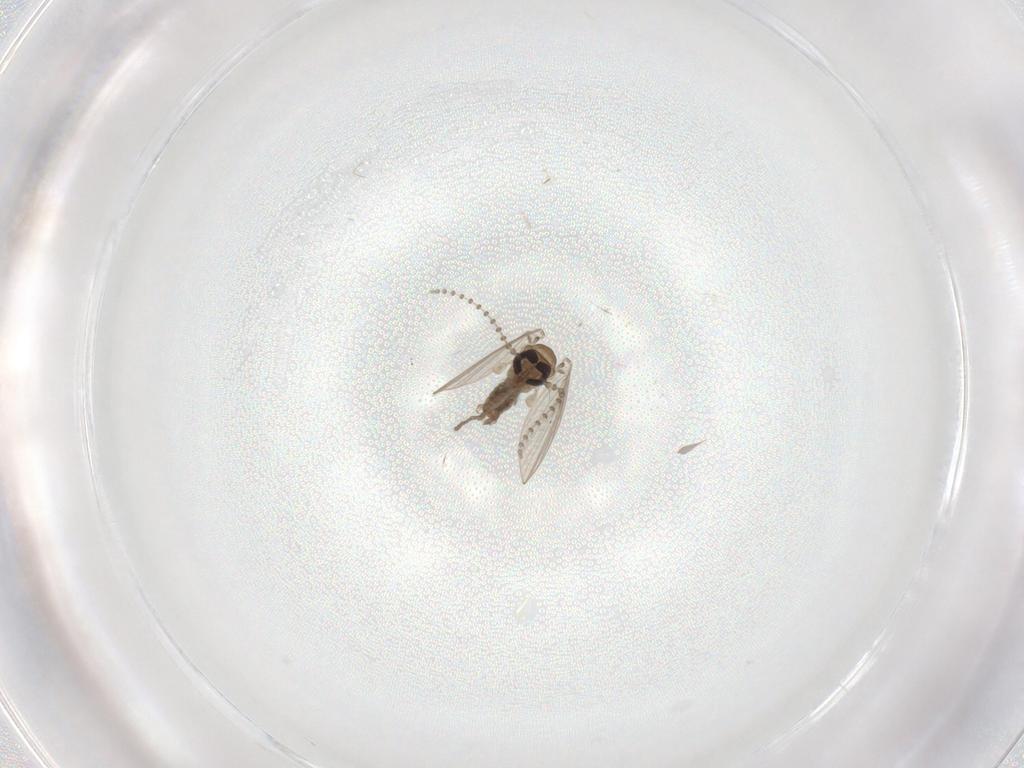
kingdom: Animalia
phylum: Arthropoda
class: Insecta
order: Diptera
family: Psychodidae
